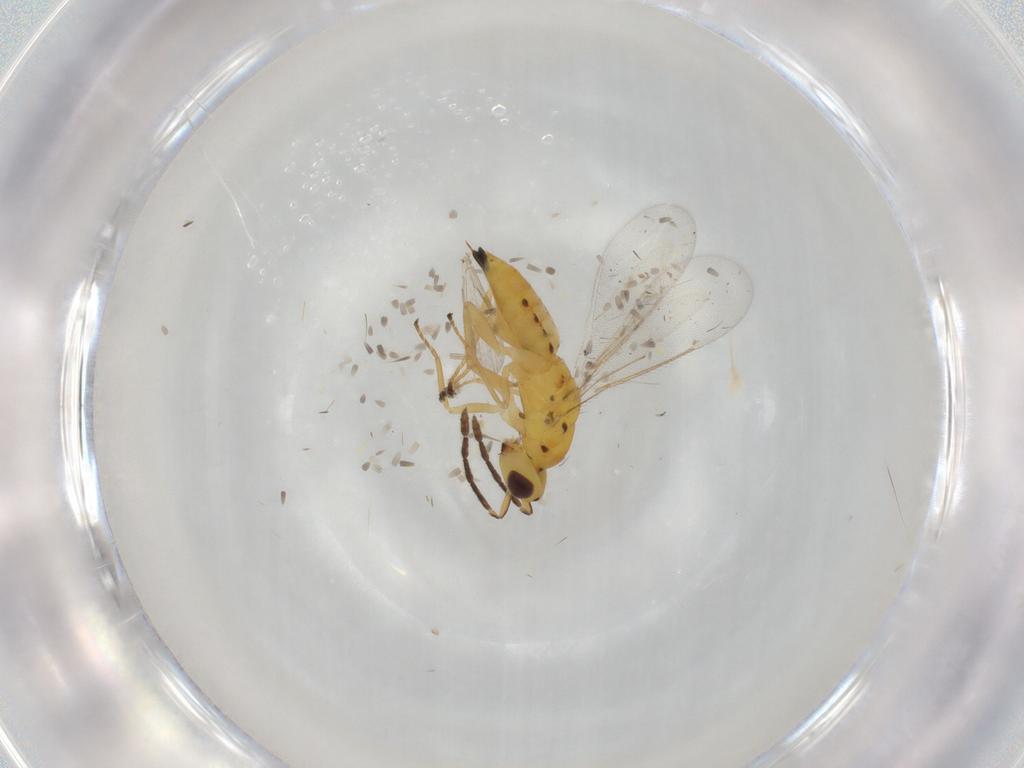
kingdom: Animalia
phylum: Arthropoda
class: Insecta
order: Hymenoptera
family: Eulophidae
